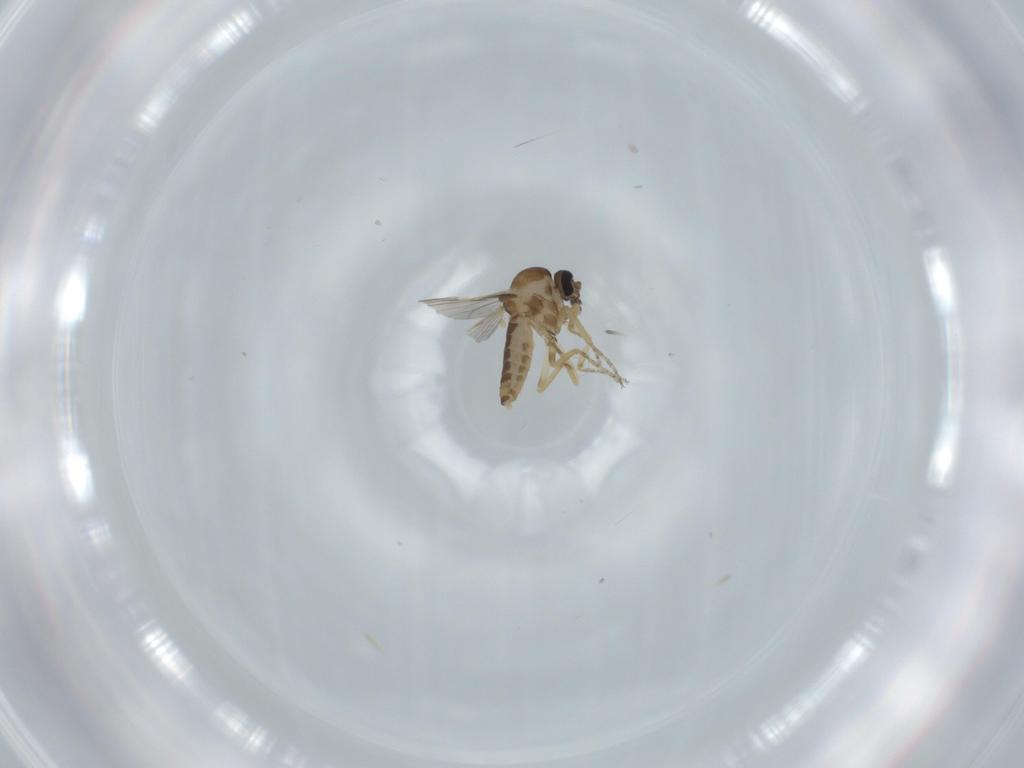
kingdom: Animalia
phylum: Arthropoda
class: Insecta
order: Diptera
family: Ceratopogonidae
